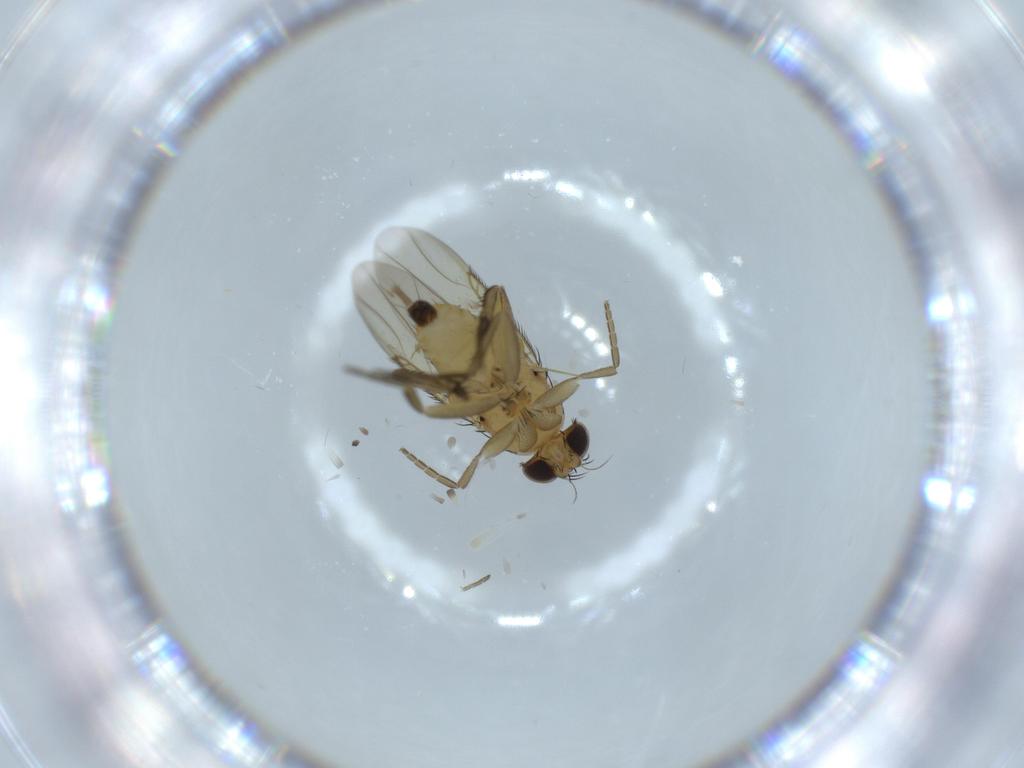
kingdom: Animalia
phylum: Arthropoda
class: Insecta
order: Diptera
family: Phoridae
